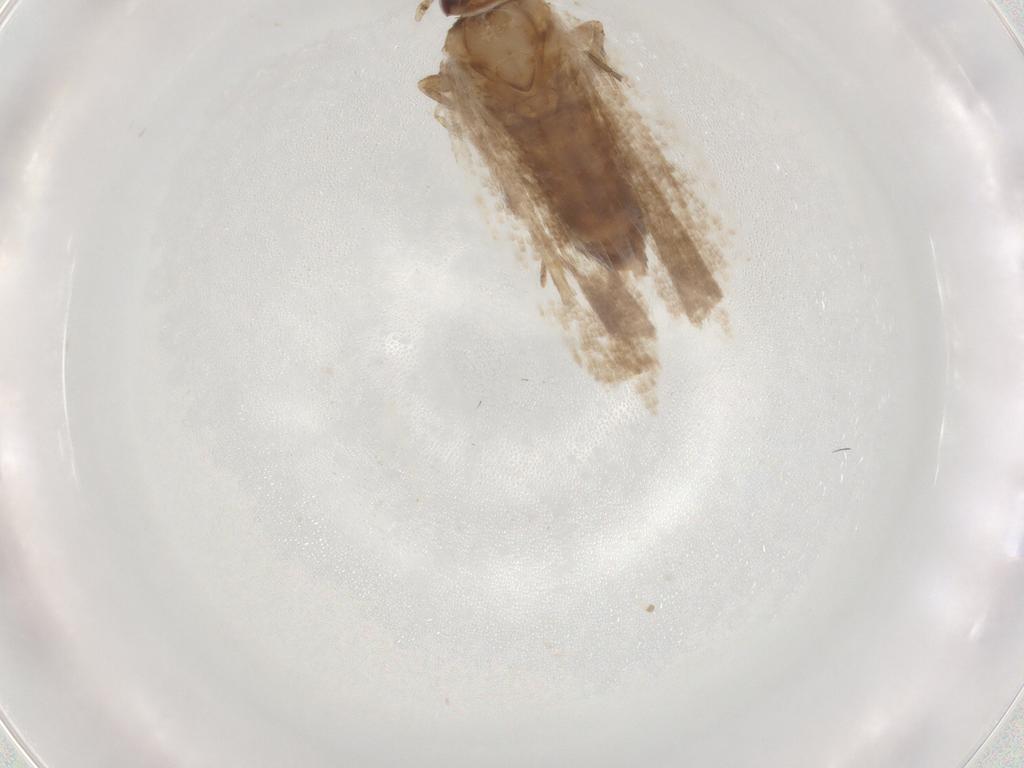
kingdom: Animalia
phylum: Arthropoda
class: Insecta
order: Lepidoptera
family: Gelechiidae
